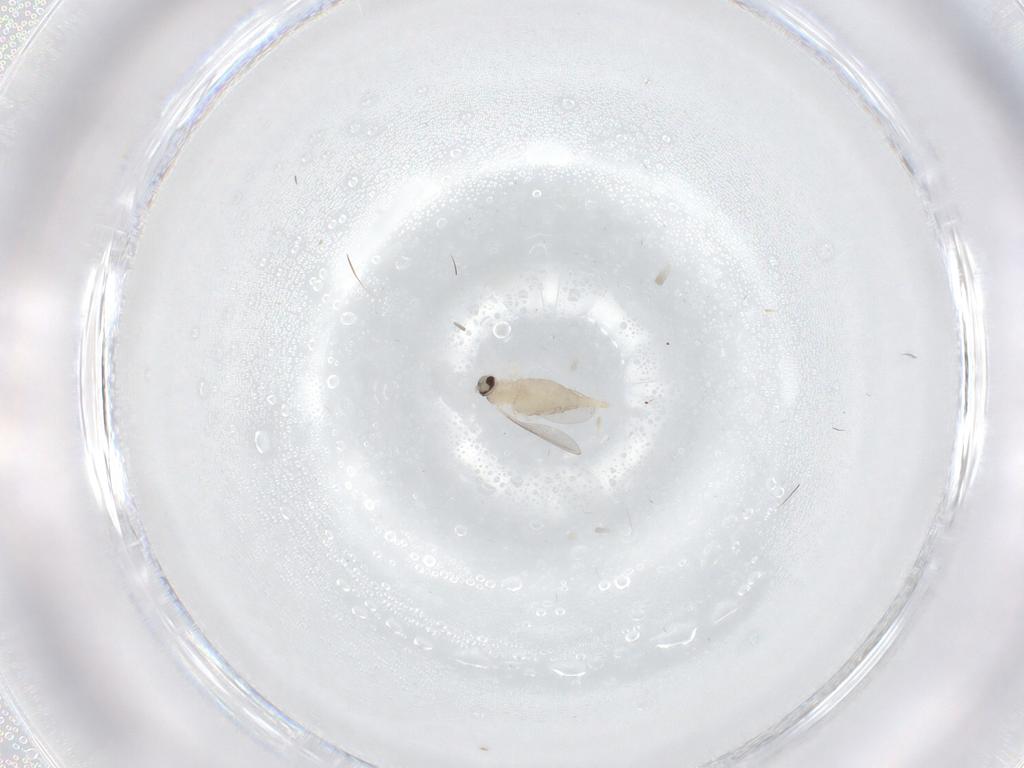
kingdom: Animalia
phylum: Arthropoda
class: Insecta
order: Diptera
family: Cecidomyiidae
